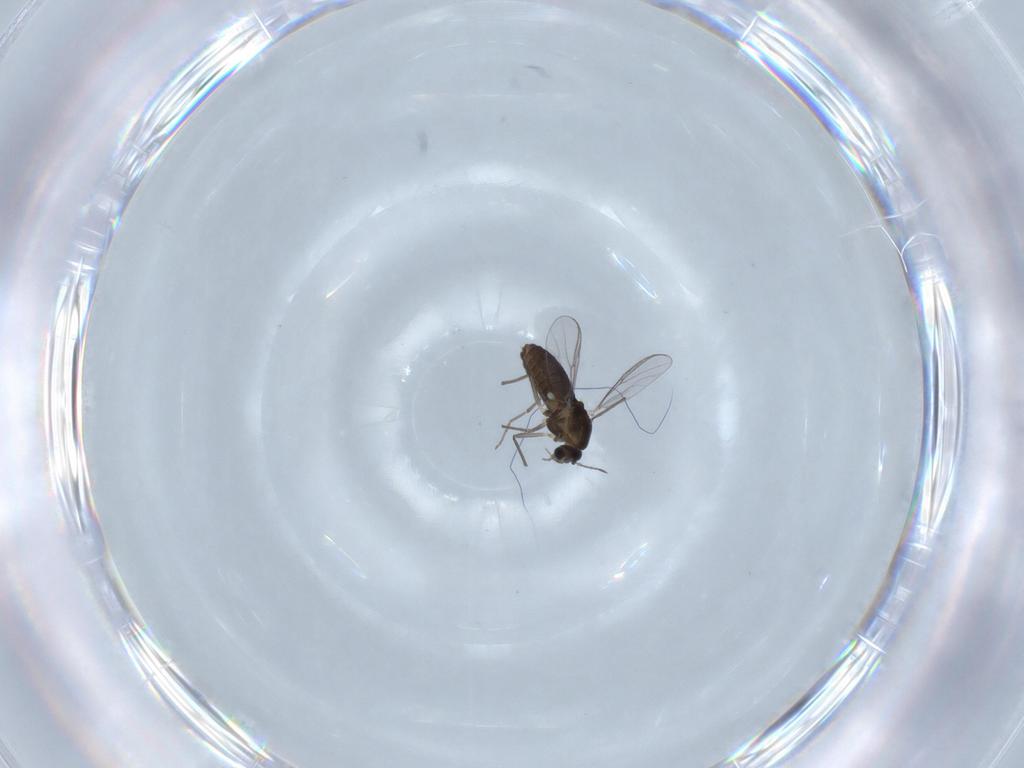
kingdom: Animalia
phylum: Arthropoda
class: Insecta
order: Diptera
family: Chironomidae
